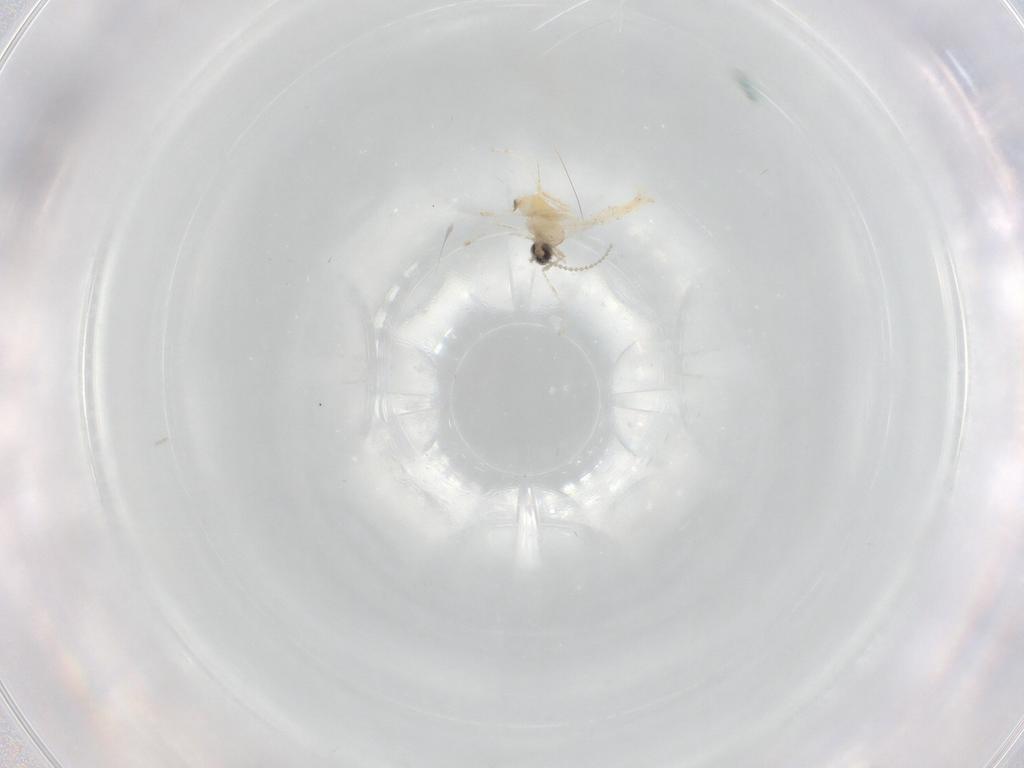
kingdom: Animalia
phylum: Arthropoda
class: Insecta
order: Diptera
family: Cecidomyiidae
